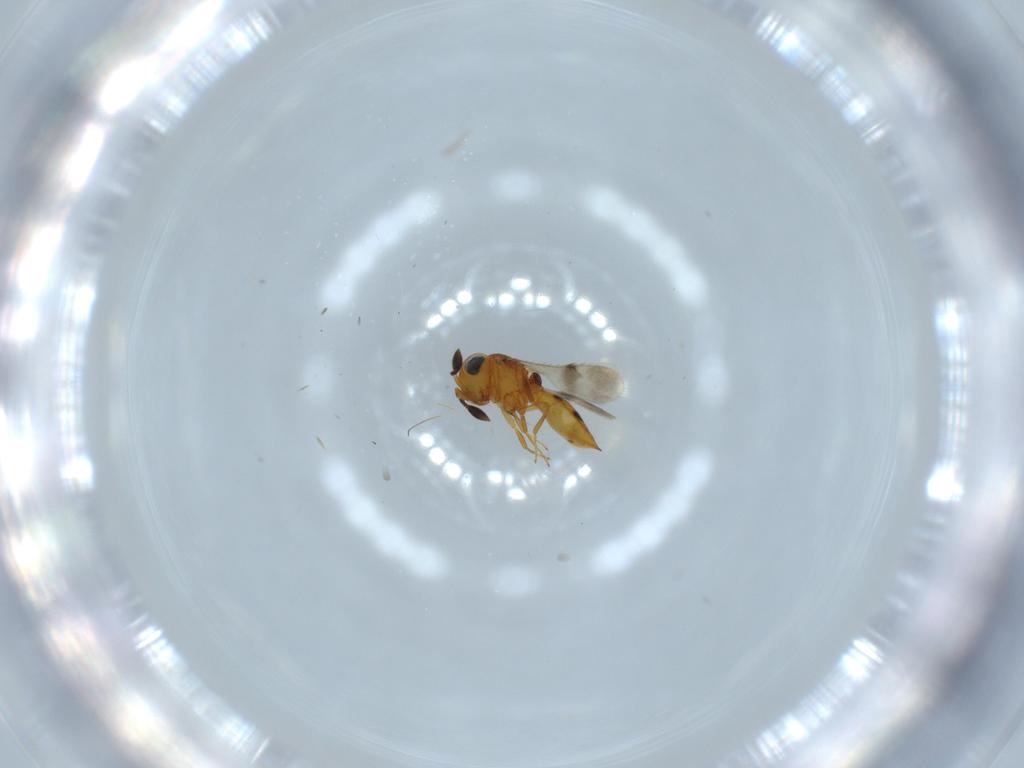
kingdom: Animalia
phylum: Arthropoda
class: Insecta
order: Hymenoptera
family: Scelionidae
